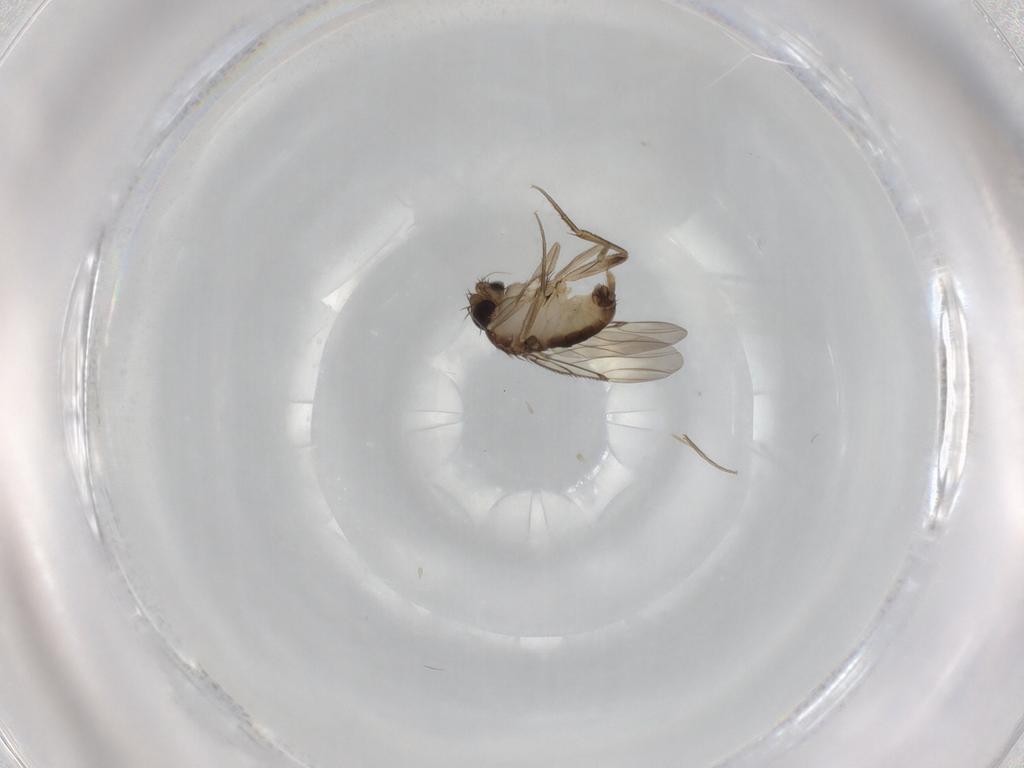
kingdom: Animalia
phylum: Arthropoda
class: Insecta
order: Diptera
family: Phoridae
